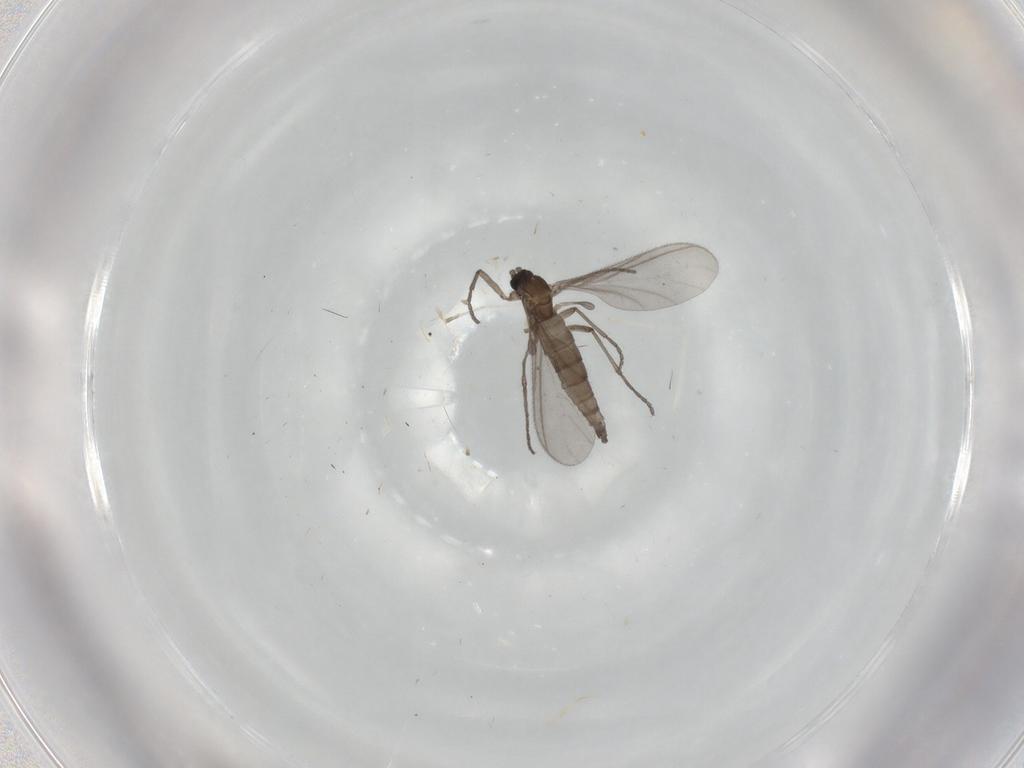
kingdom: Animalia
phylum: Arthropoda
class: Insecta
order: Diptera
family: Sciaridae
